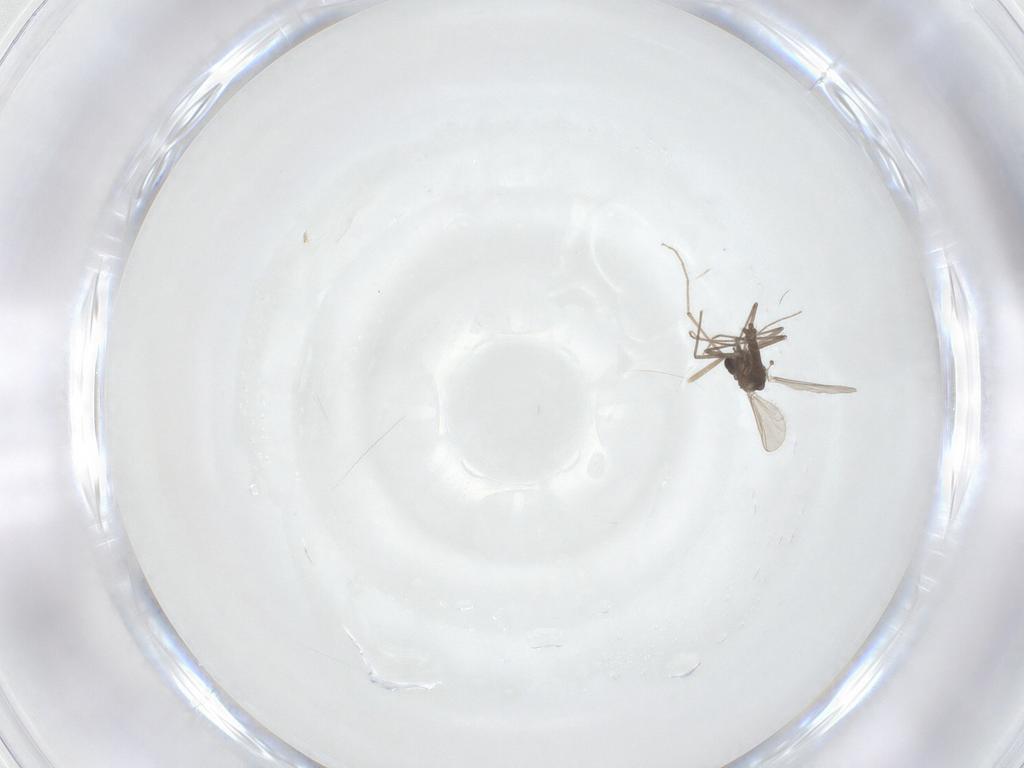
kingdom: Animalia
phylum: Arthropoda
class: Insecta
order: Diptera
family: Chironomidae
